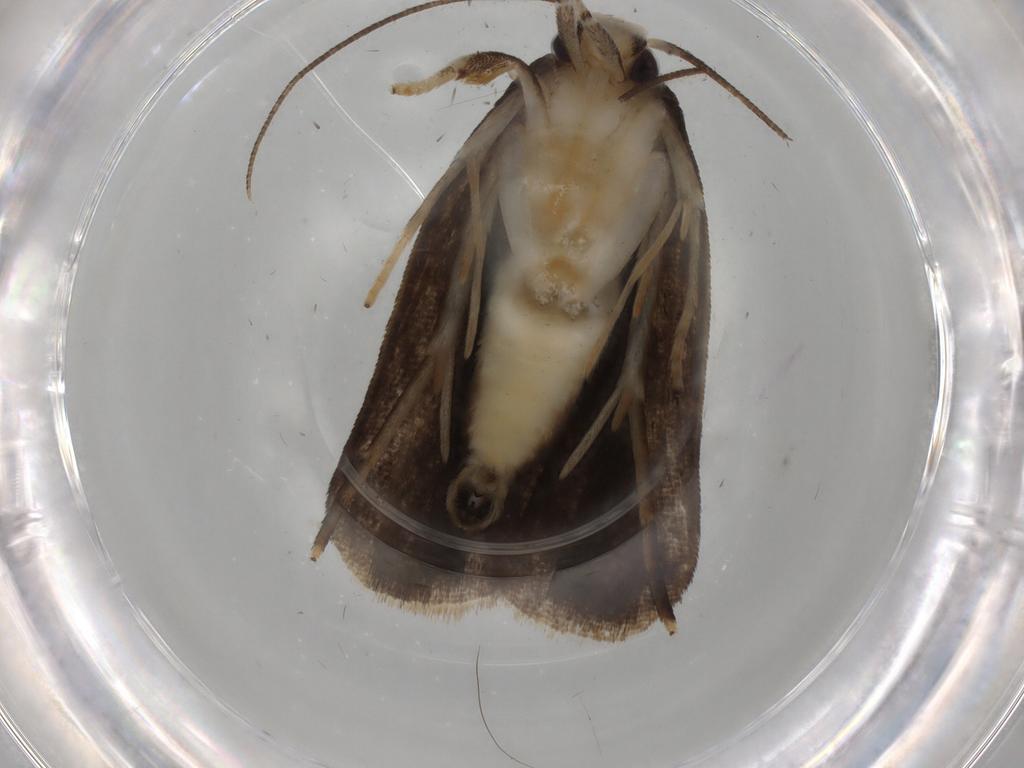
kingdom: Animalia
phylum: Arthropoda
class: Insecta
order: Lepidoptera
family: Gelechiidae
